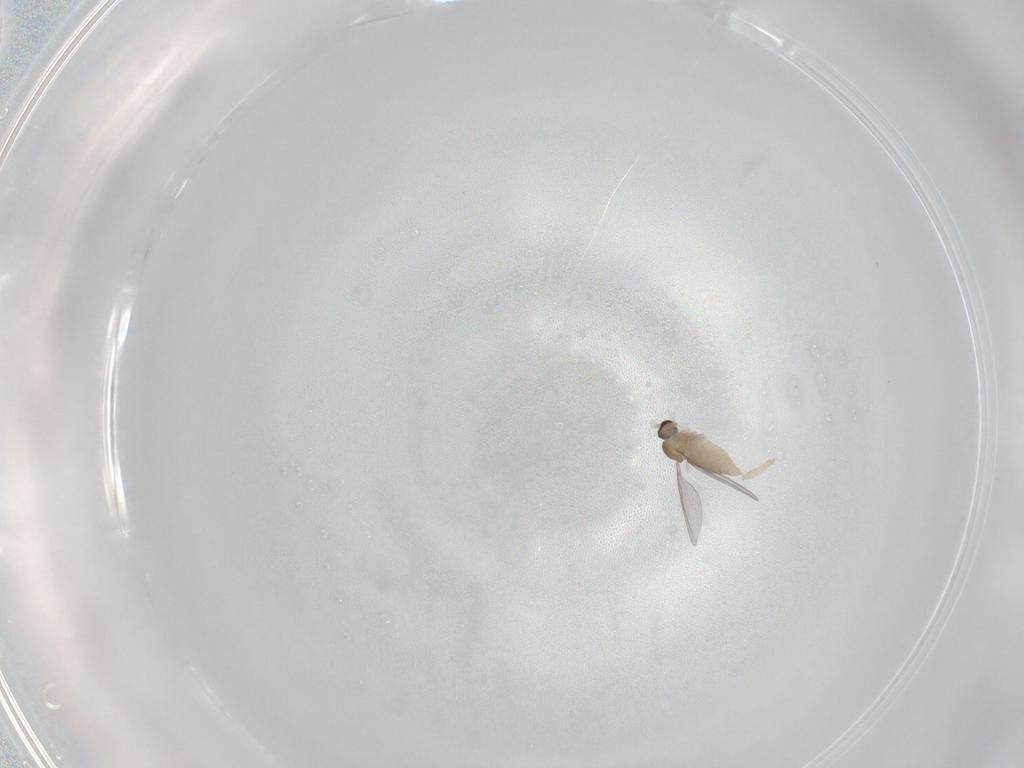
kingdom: Animalia
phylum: Arthropoda
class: Insecta
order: Diptera
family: Cecidomyiidae
